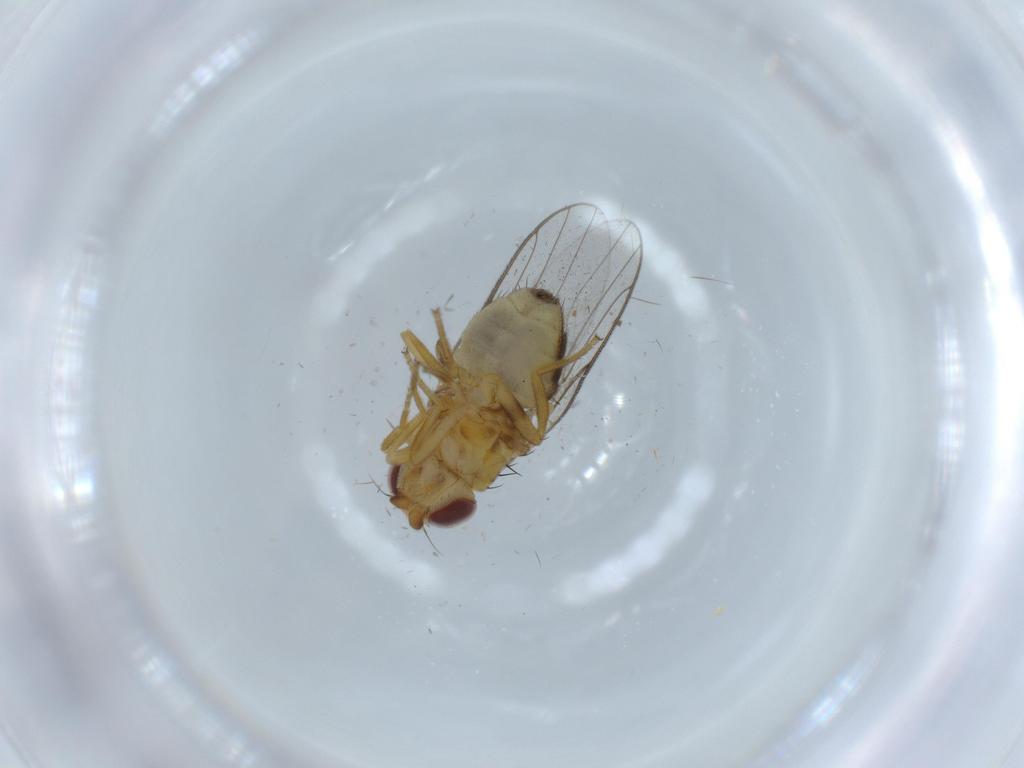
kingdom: Animalia
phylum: Arthropoda
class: Insecta
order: Diptera
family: Chloropidae
